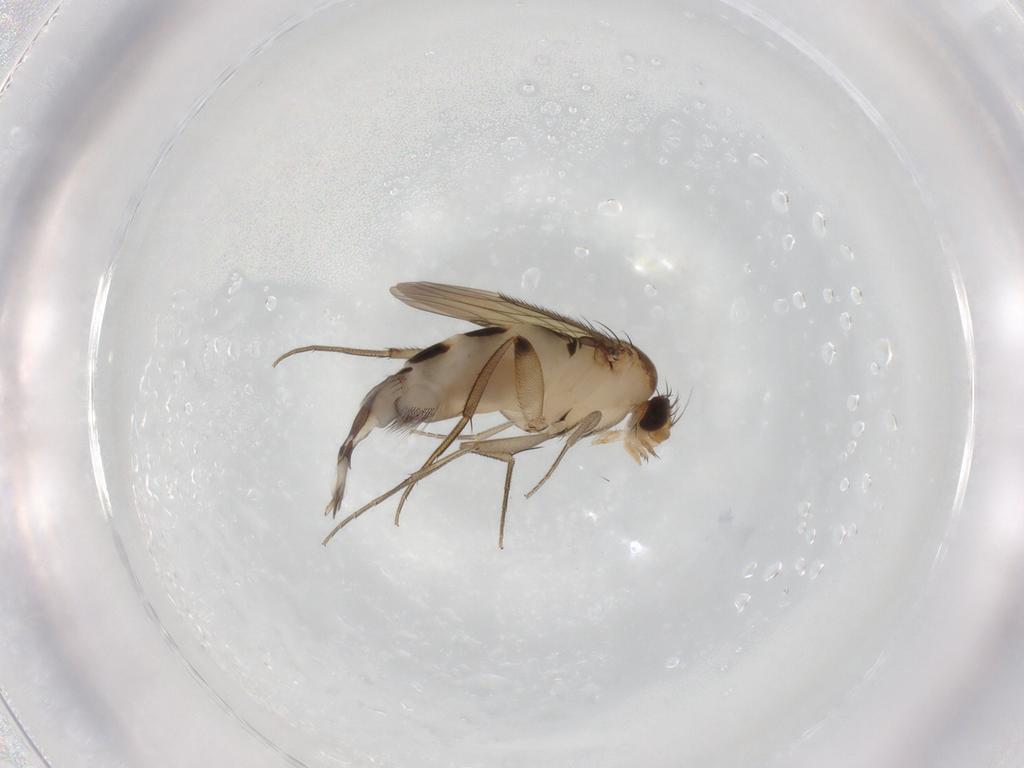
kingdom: Animalia
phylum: Arthropoda
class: Insecta
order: Diptera
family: Phoridae
